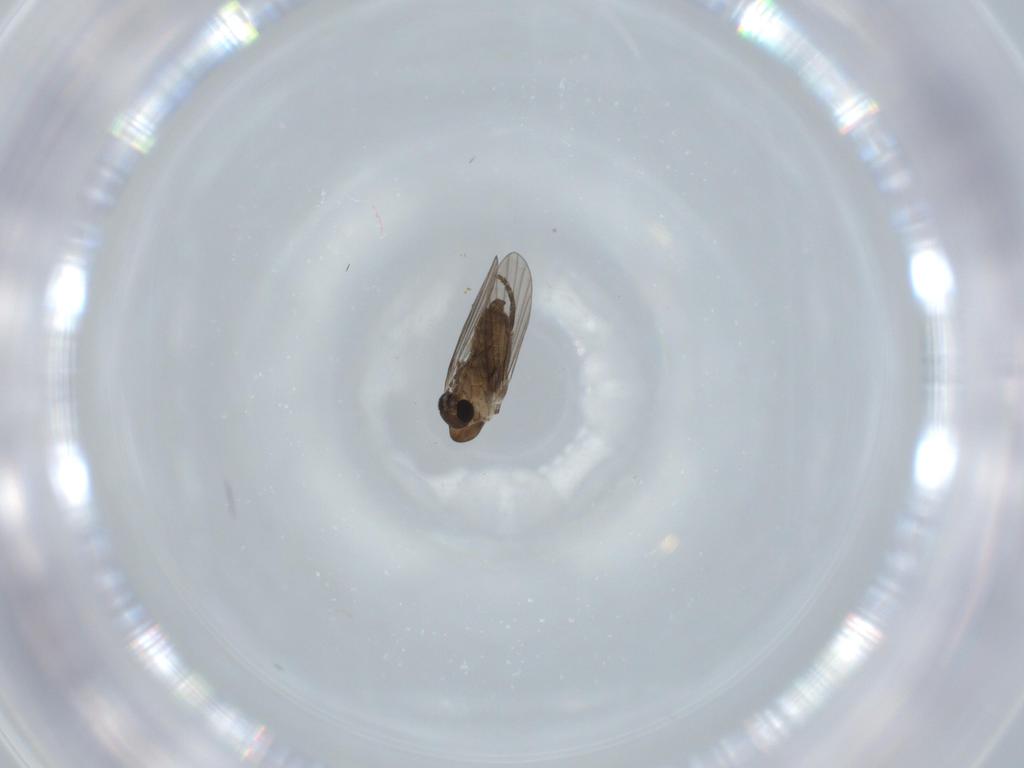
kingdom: Animalia
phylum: Arthropoda
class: Insecta
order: Diptera
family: Psychodidae
